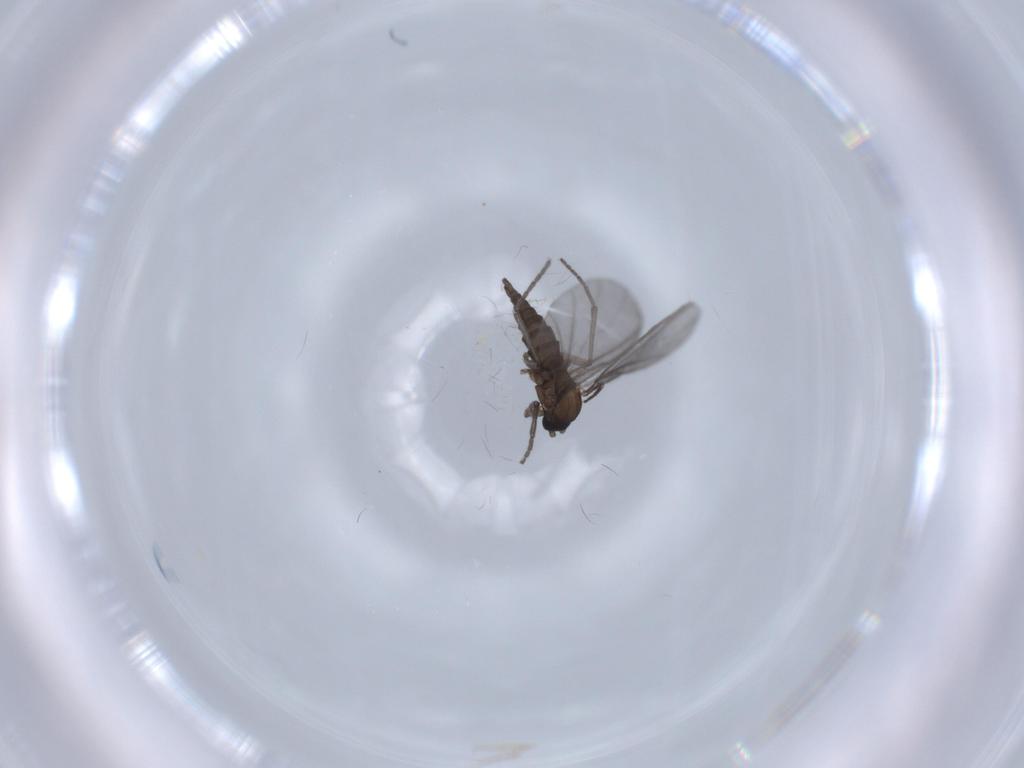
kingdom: Animalia
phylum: Arthropoda
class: Insecta
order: Diptera
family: Sciaridae
